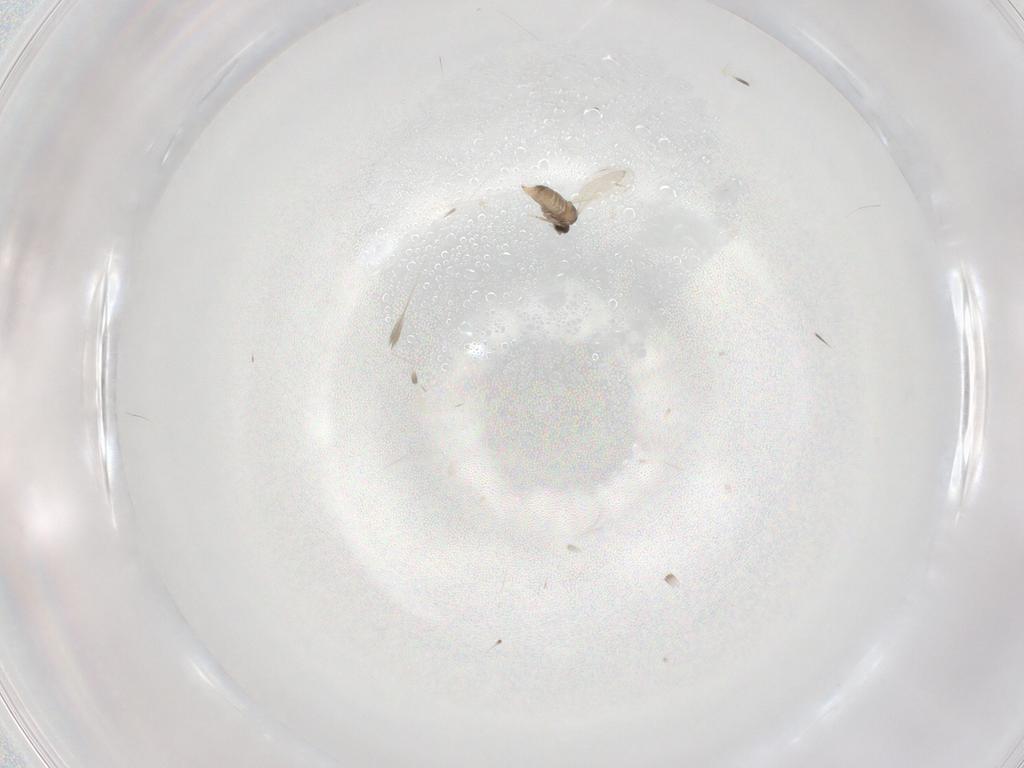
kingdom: Animalia
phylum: Arthropoda
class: Insecta
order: Diptera
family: Cecidomyiidae
